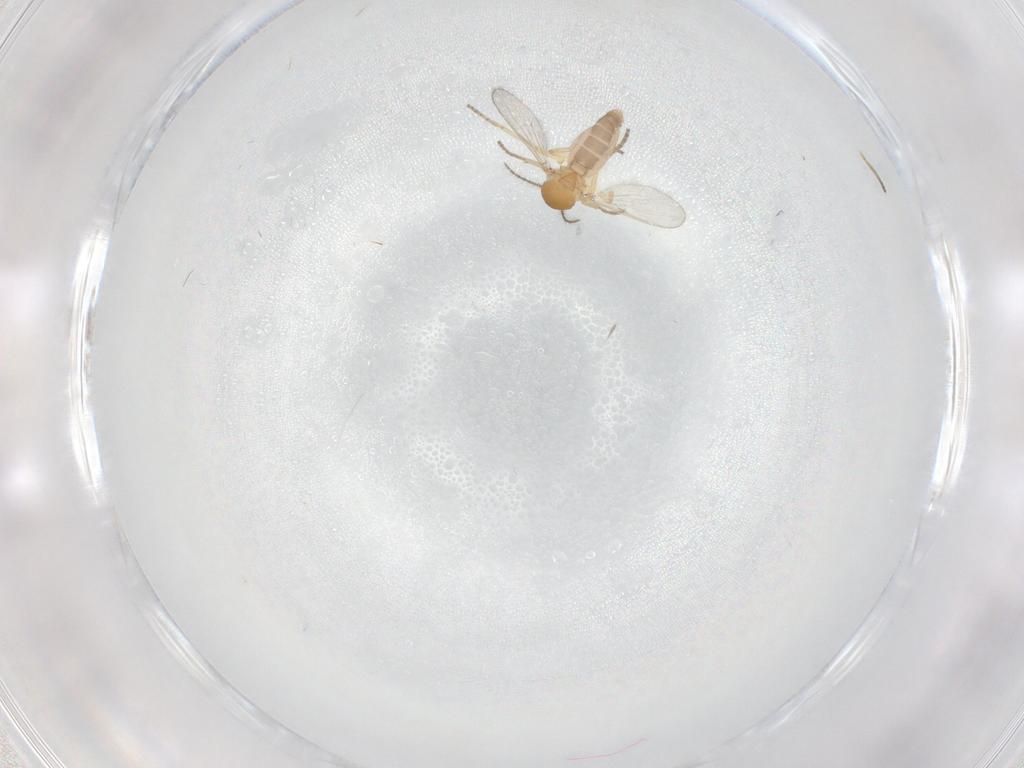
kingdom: Animalia
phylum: Arthropoda
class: Insecta
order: Diptera
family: Ceratopogonidae
